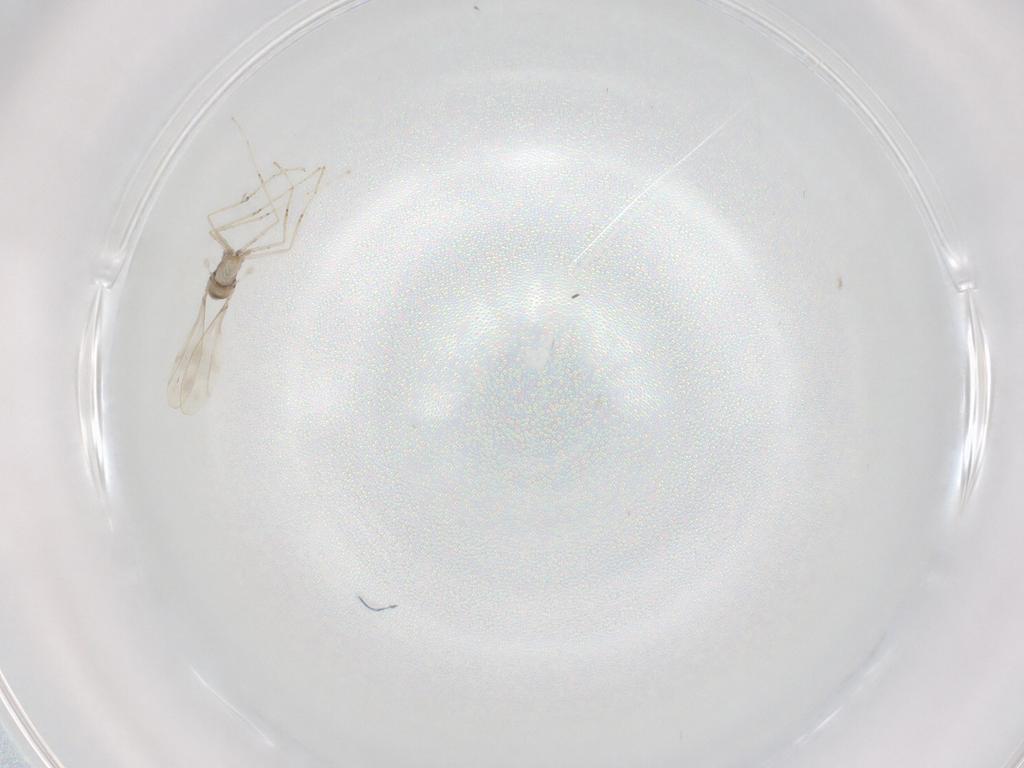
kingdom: Animalia
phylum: Arthropoda
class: Insecta
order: Diptera
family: Cecidomyiidae
